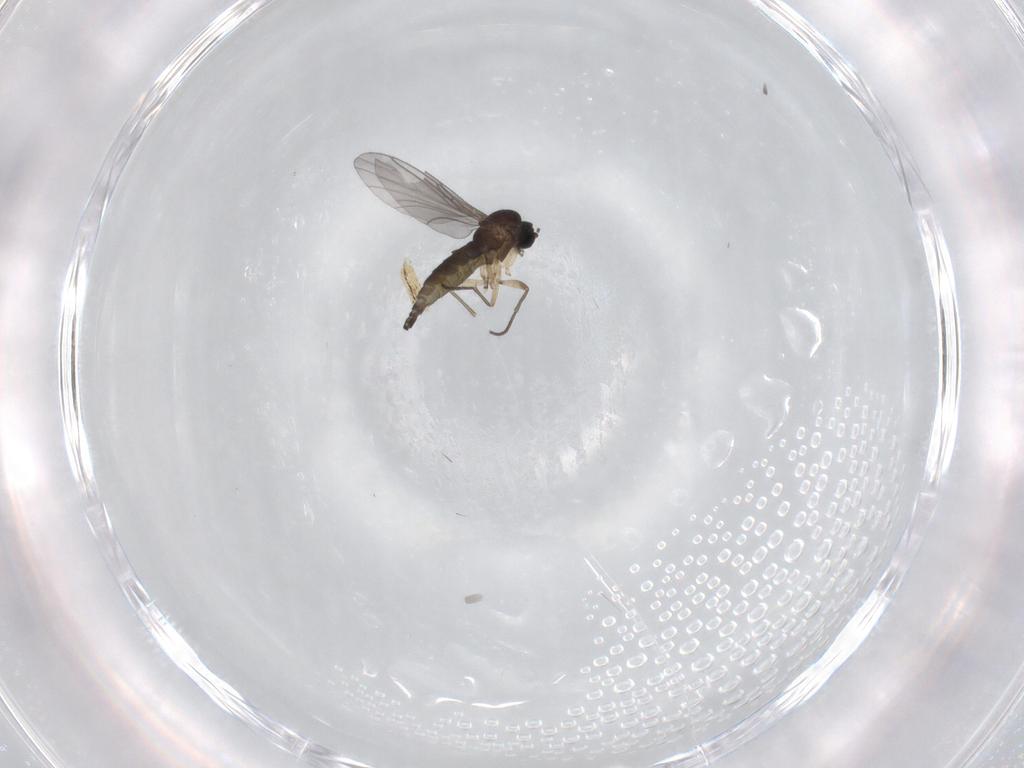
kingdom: Animalia
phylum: Arthropoda
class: Insecta
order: Diptera
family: Sciaridae
